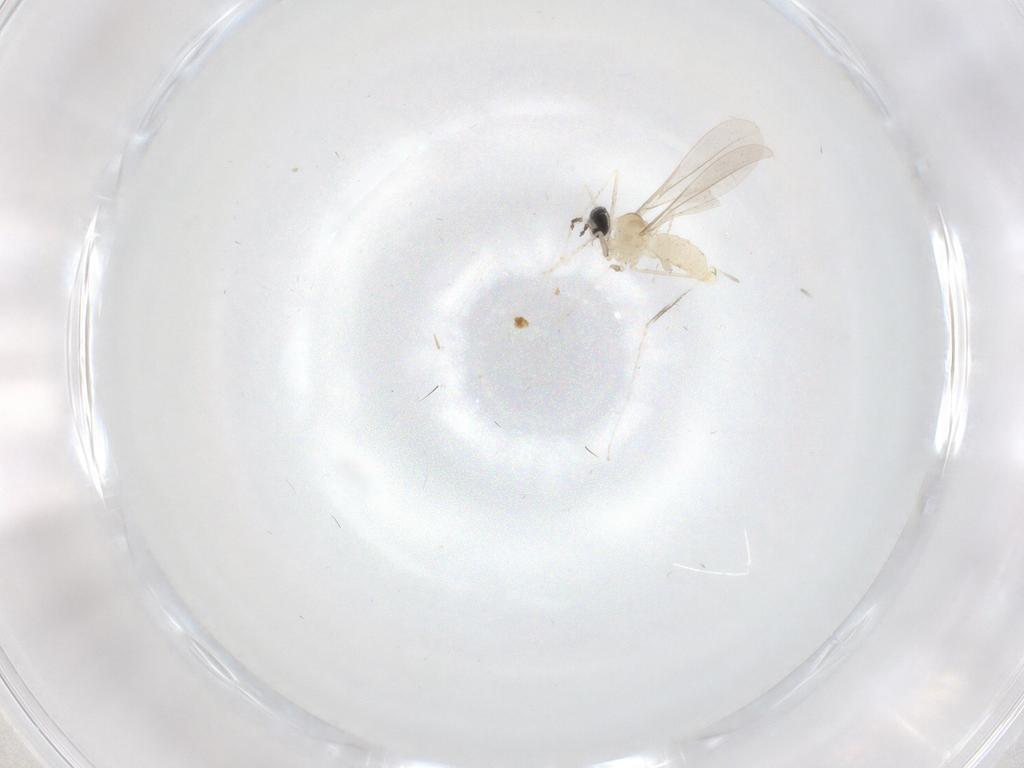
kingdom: Animalia
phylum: Arthropoda
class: Insecta
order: Diptera
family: Cecidomyiidae
